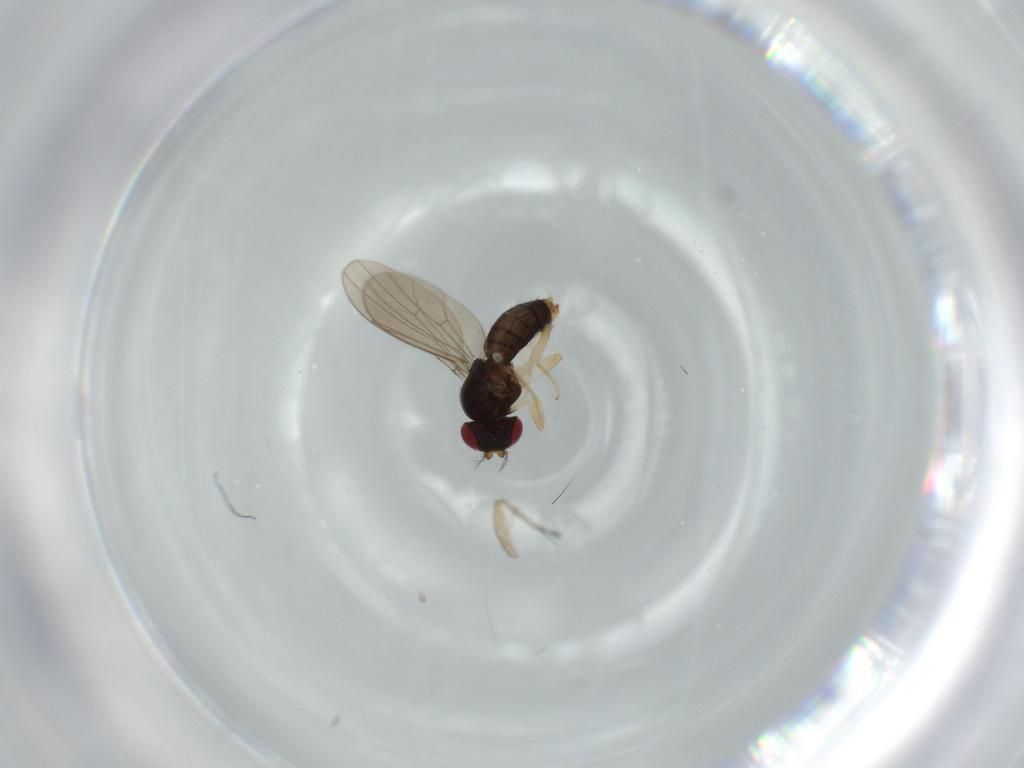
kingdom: Animalia
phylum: Arthropoda
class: Insecta
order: Diptera
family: Drosophilidae
